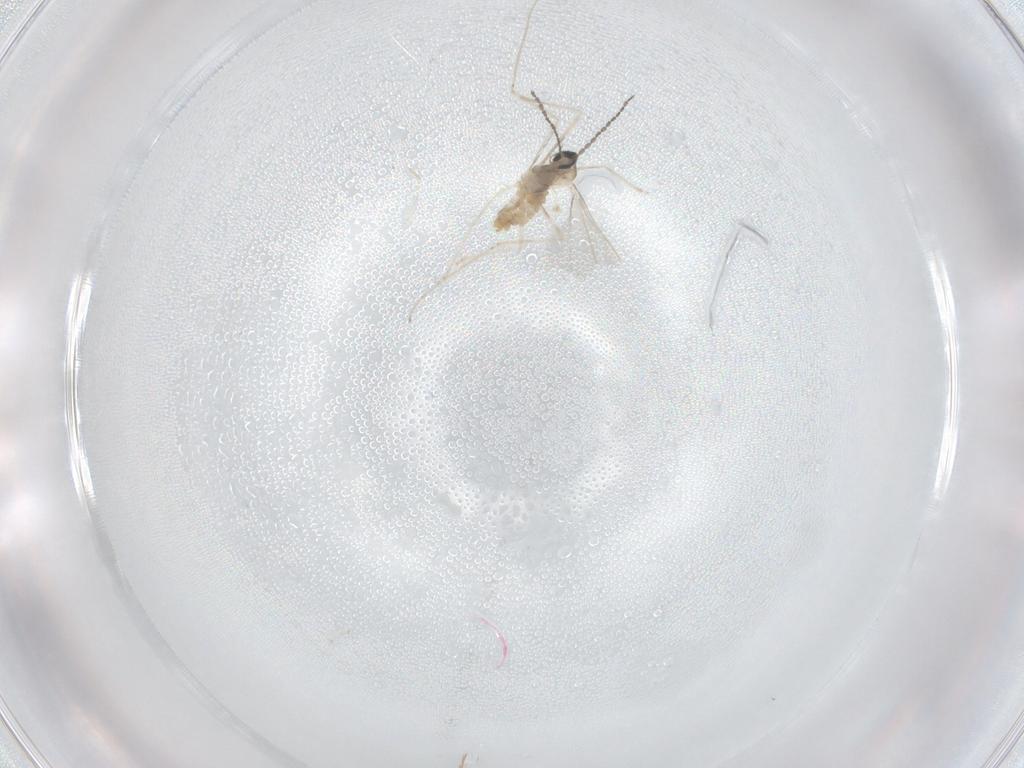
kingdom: Animalia
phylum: Arthropoda
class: Insecta
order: Diptera
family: Cecidomyiidae
